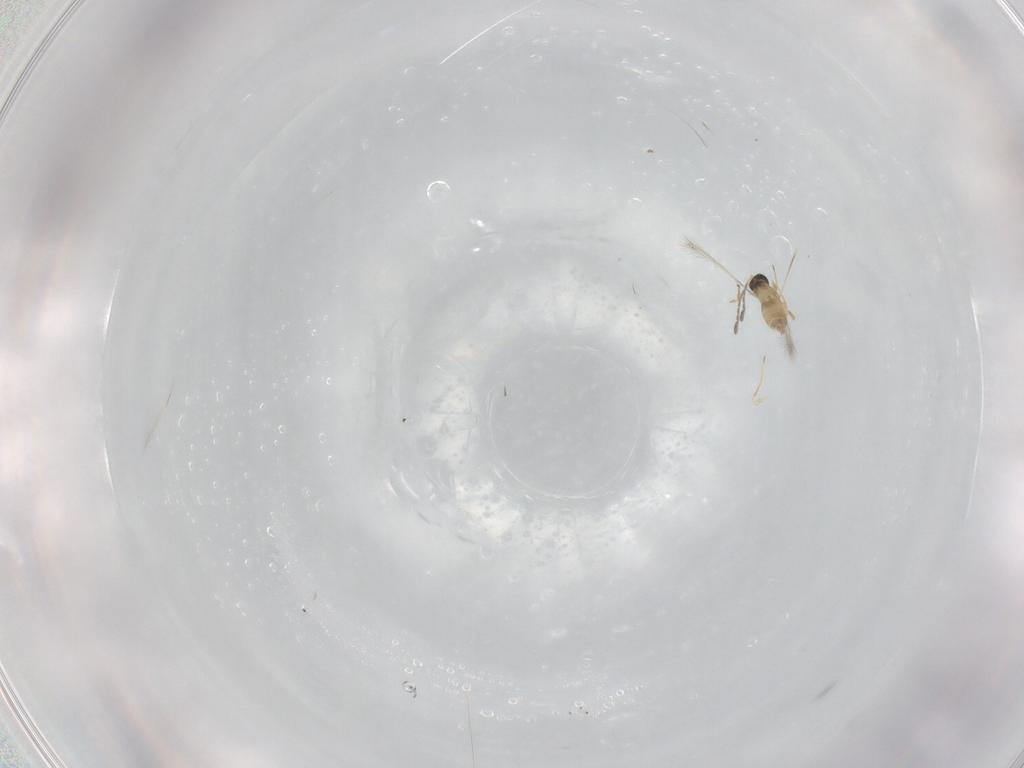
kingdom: Animalia
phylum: Arthropoda
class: Insecta
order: Hymenoptera
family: Mymaridae
